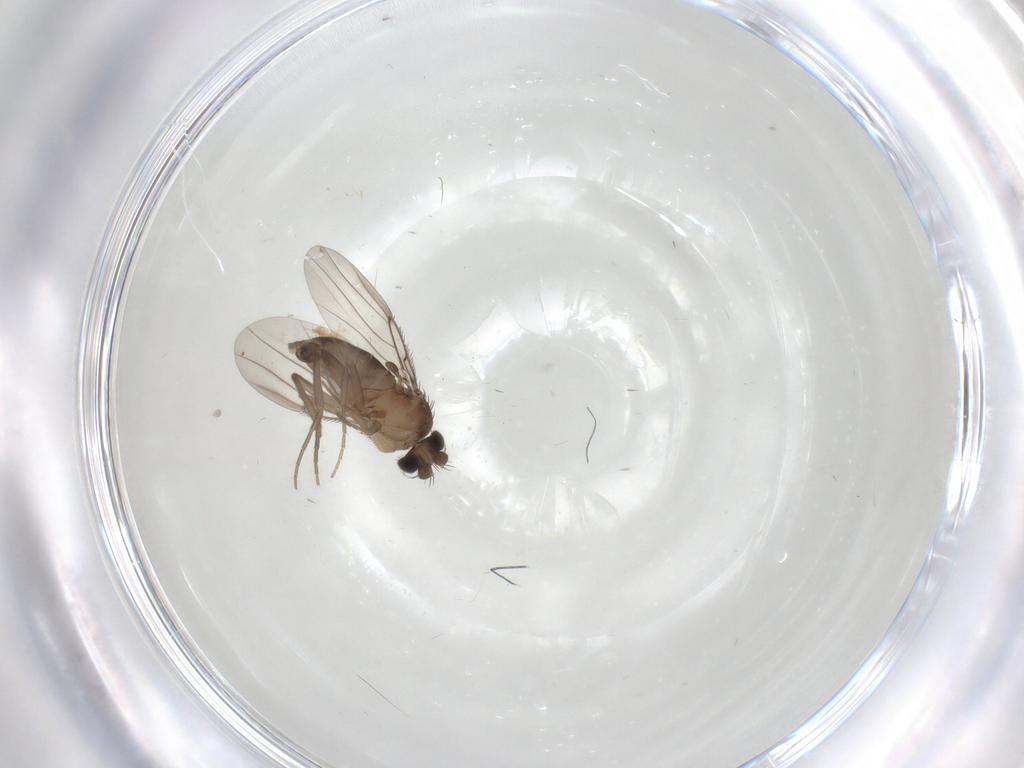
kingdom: Animalia
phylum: Arthropoda
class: Insecta
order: Diptera
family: Phoridae
